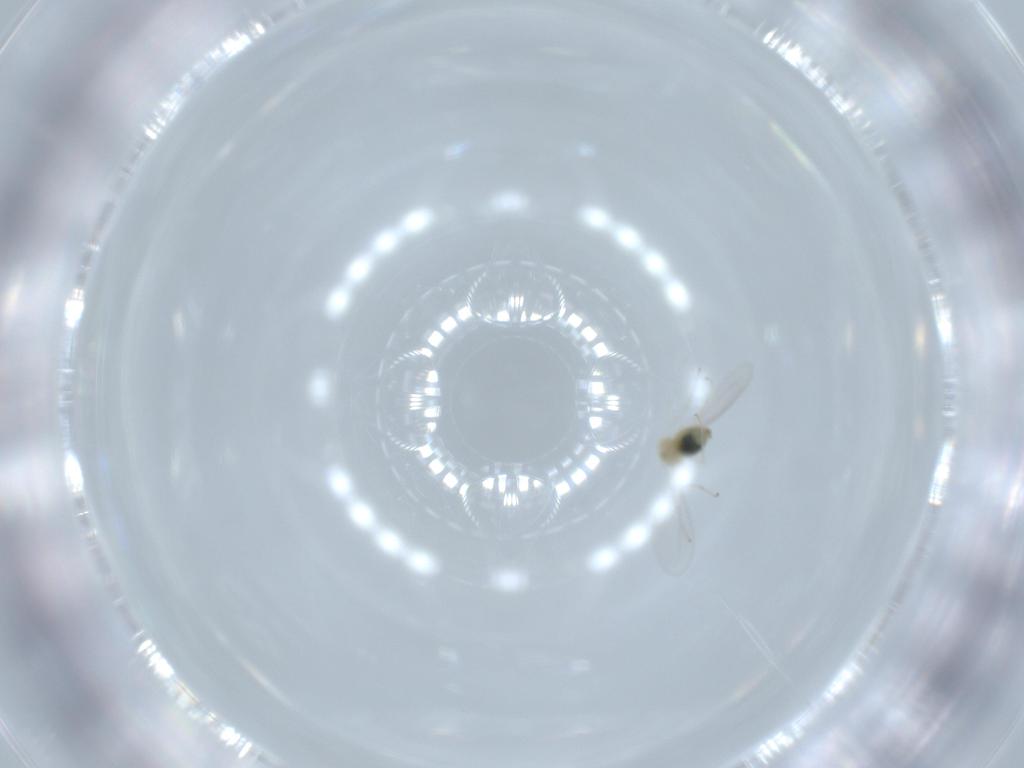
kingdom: Animalia
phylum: Arthropoda
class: Insecta
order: Diptera
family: Cecidomyiidae
